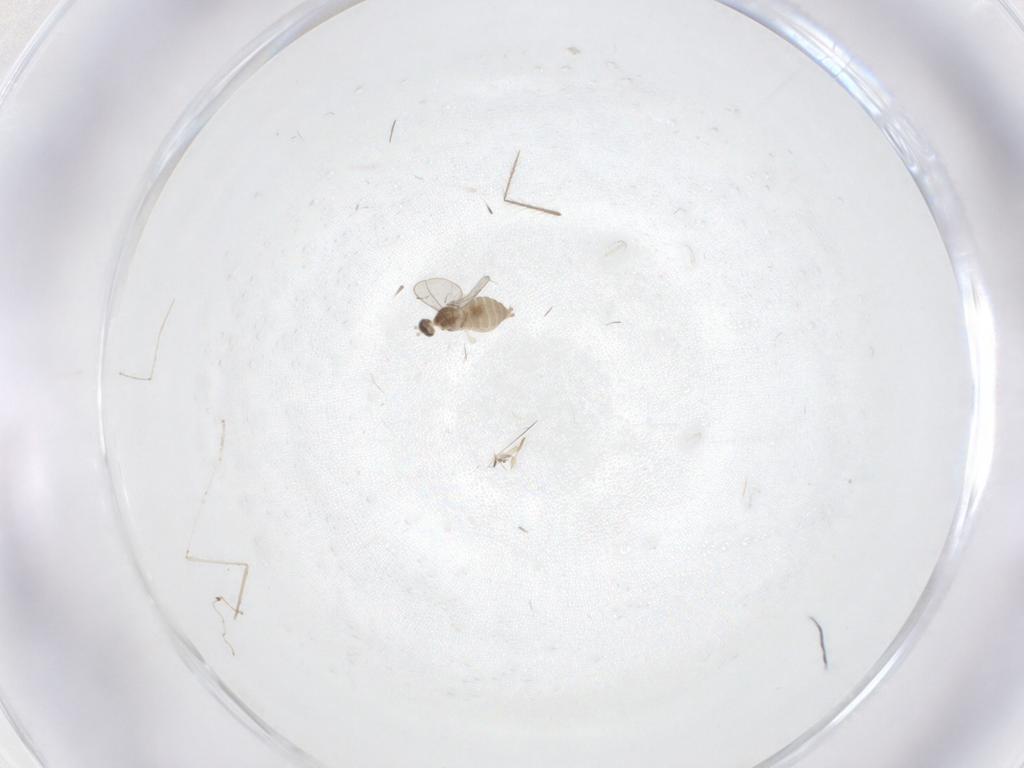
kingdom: Animalia
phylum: Arthropoda
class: Insecta
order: Diptera
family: Cecidomyiidae
